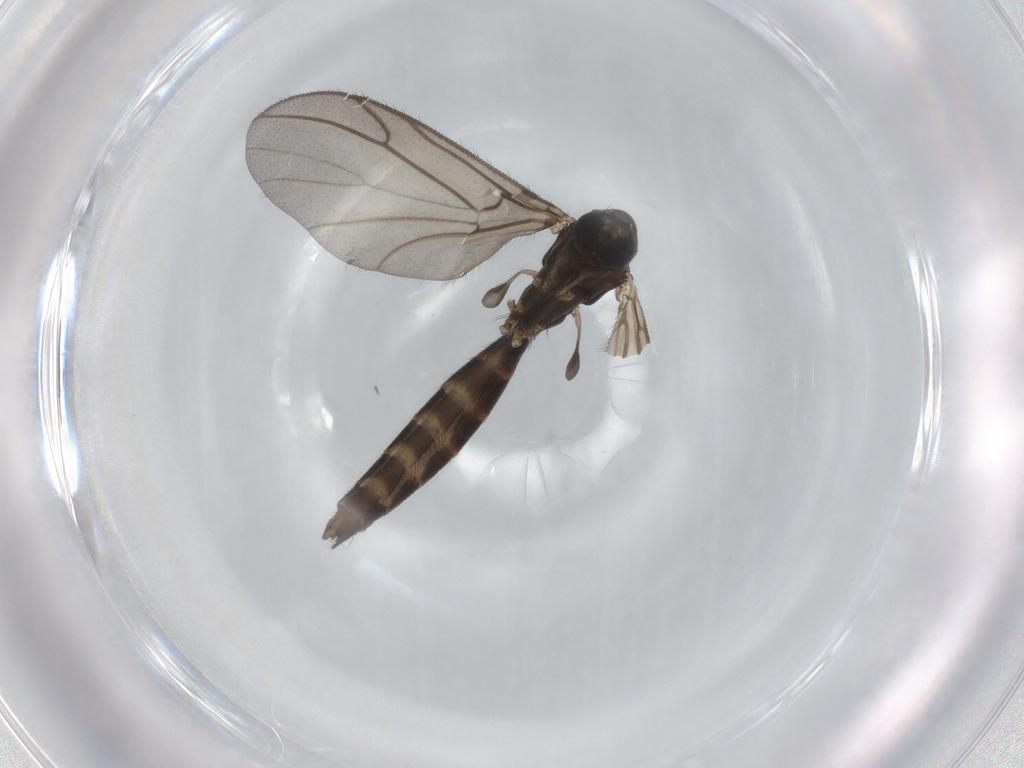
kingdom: Animalia
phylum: Arthropoda
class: Insecta
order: Diptera
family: Ditomyiidae
